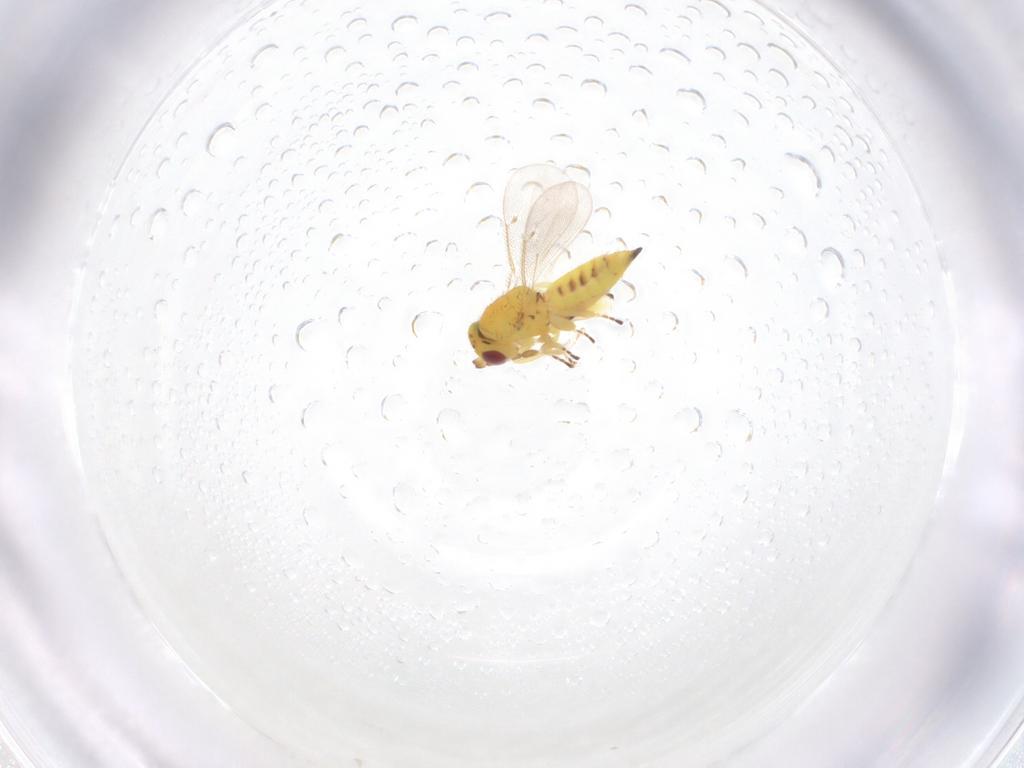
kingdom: Animalia
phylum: Arthropoda
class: Insecta
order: Hymenoptera
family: Eulophidae
